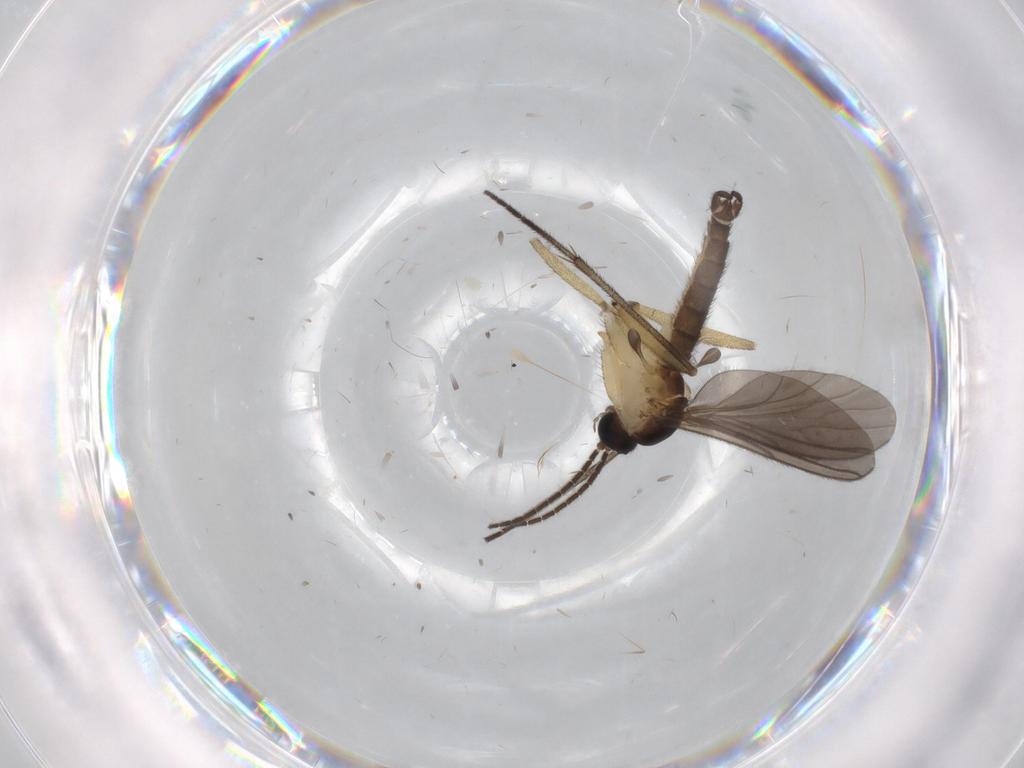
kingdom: Animalia
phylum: Arthropoda
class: Insecta
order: Diptera
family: Sciaridae
